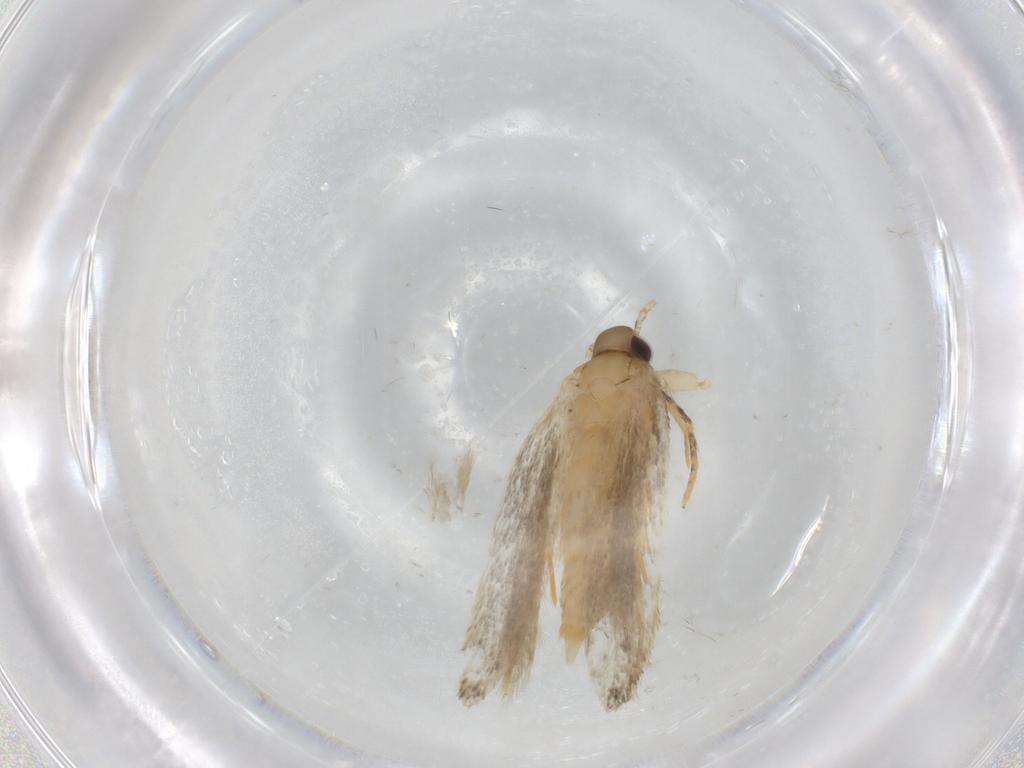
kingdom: Animalia
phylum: Arthropoda
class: Insecta
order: Lepidoptera
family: Autostichidae
